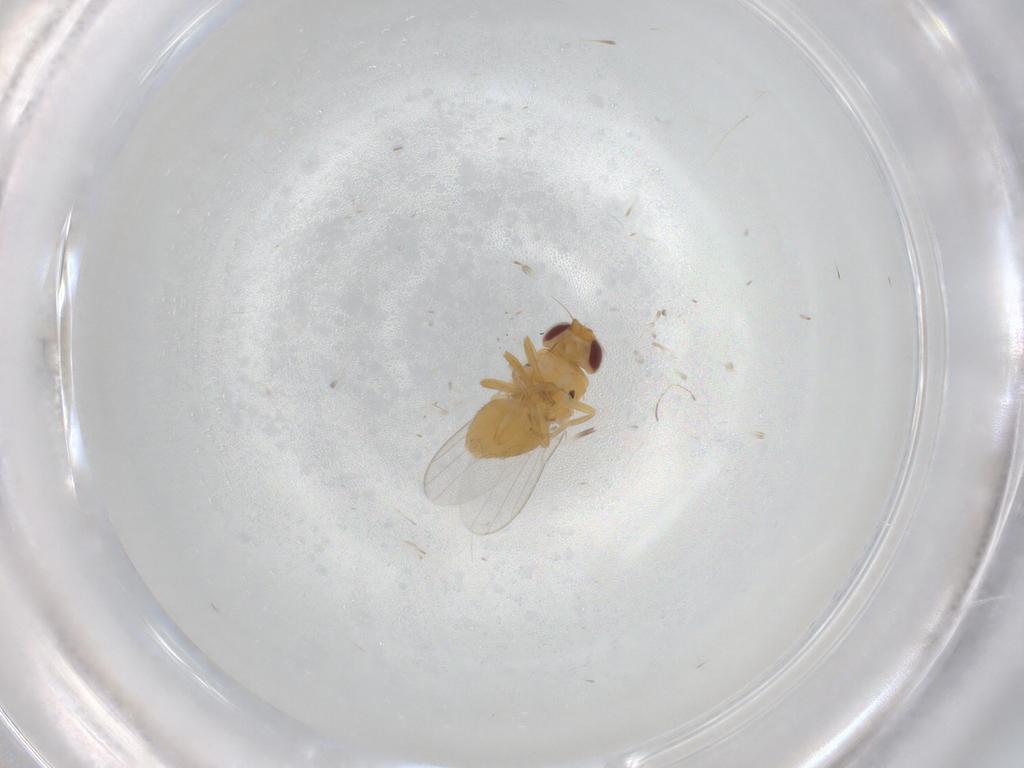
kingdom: Animalia
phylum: Arthropoda
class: Insecta
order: Diptera
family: Chloropidae
